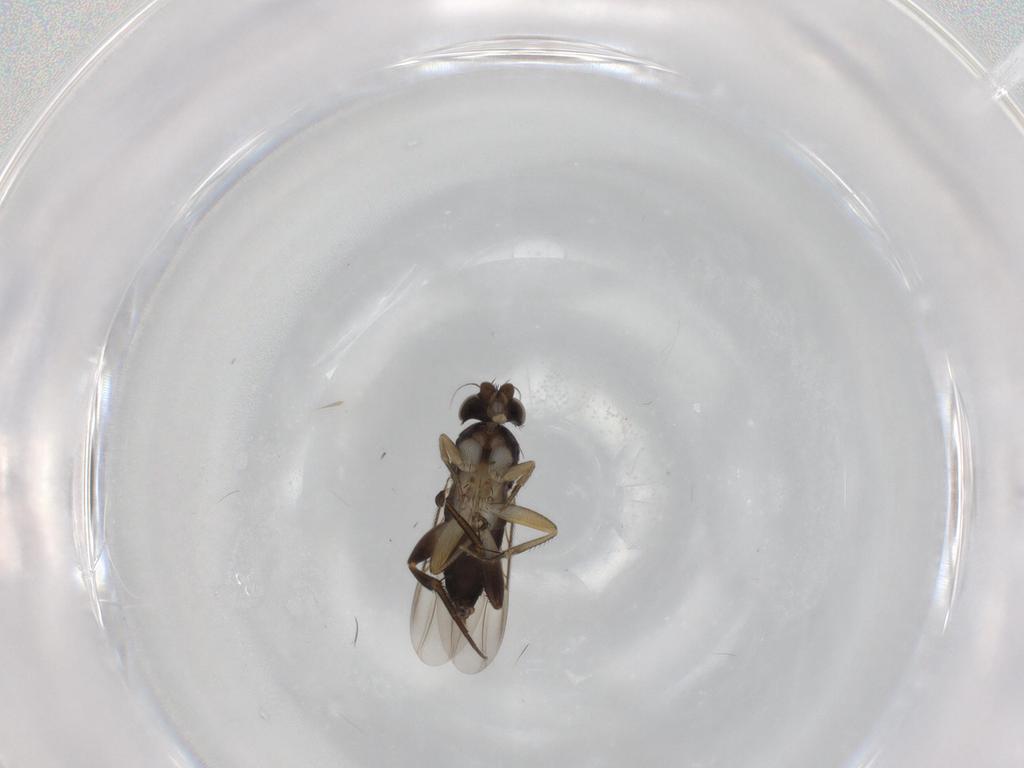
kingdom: Animalia
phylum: Arthropoda
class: Insecta
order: Diptera
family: Phoridae
